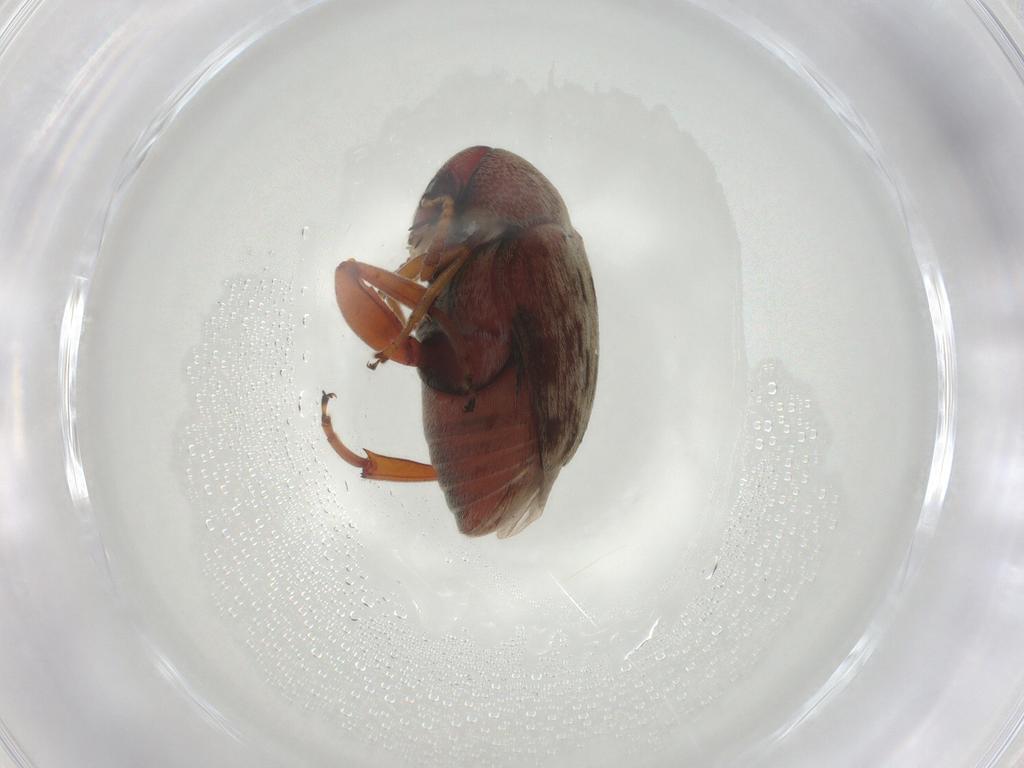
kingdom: Animalia
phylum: Arthropoda
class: Insecta
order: Coleoptera
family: Chrysomelidae
